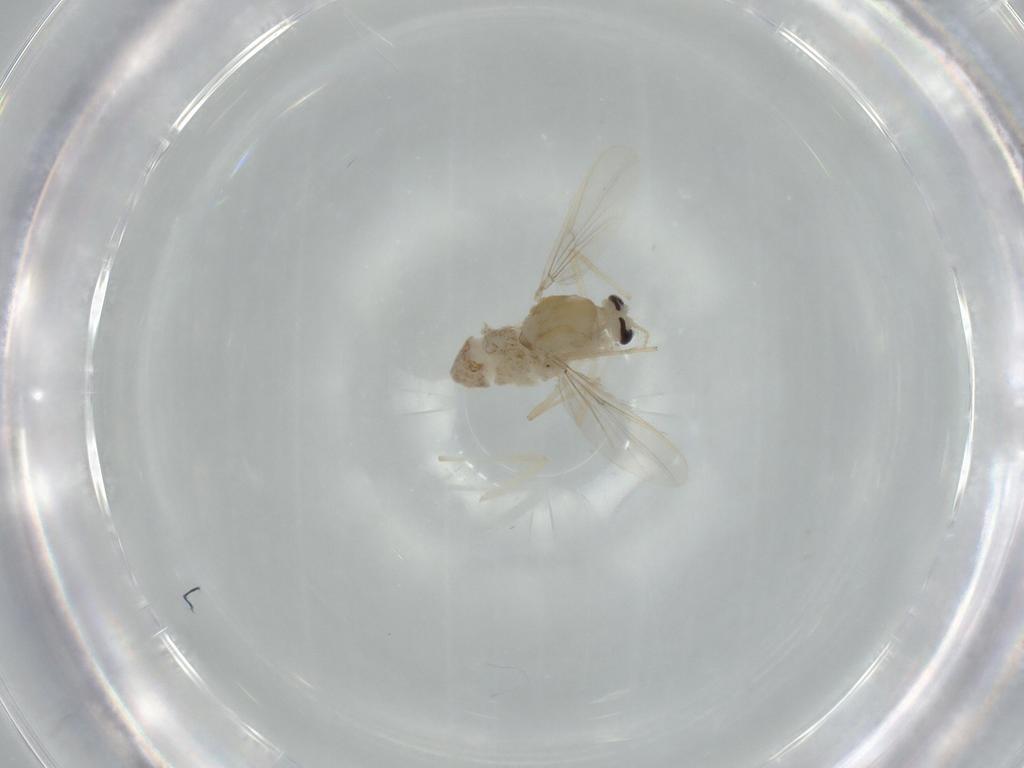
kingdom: Animalia
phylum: Arthropoda
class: Insecta
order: Diptera
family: Chironomidae
